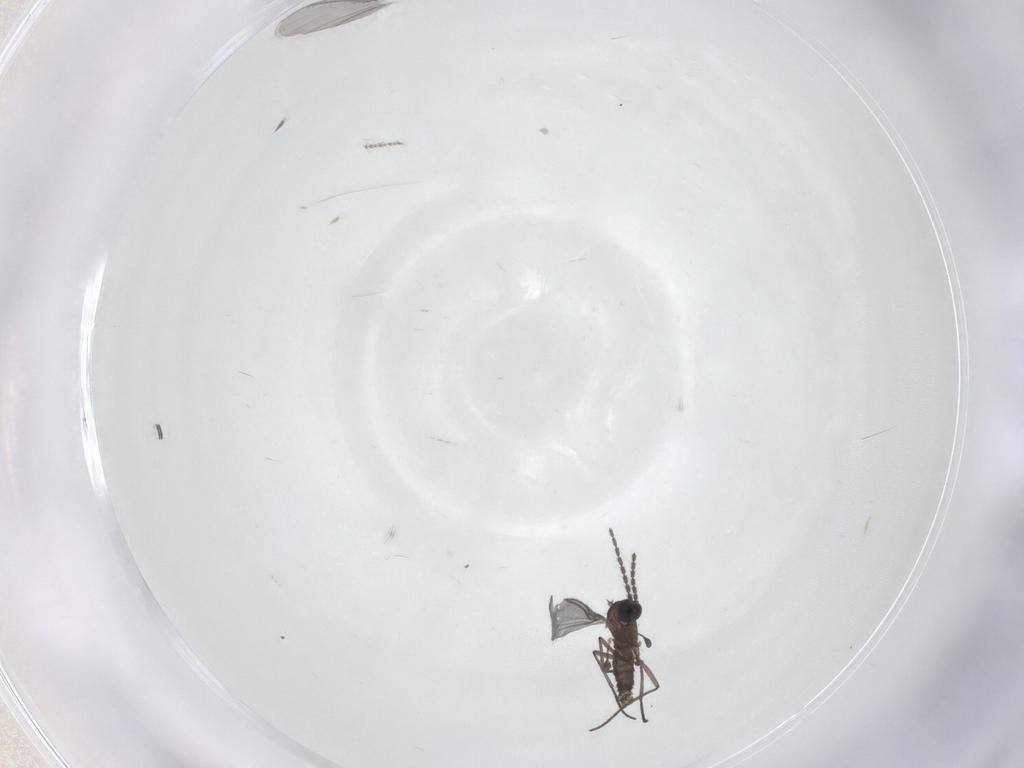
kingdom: Animalia
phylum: Arthropoda
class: Insecta
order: Diptera
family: Sciaridae
